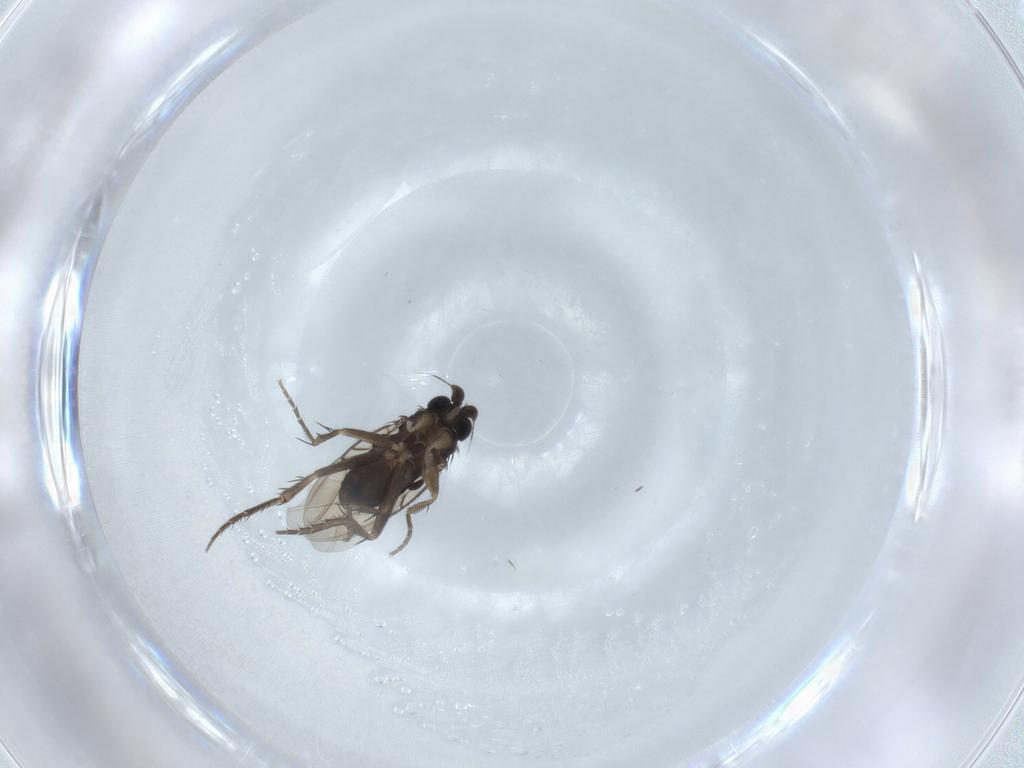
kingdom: Animalia
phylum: Arthropoda
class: Insecta
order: Diptera
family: Phoridae
